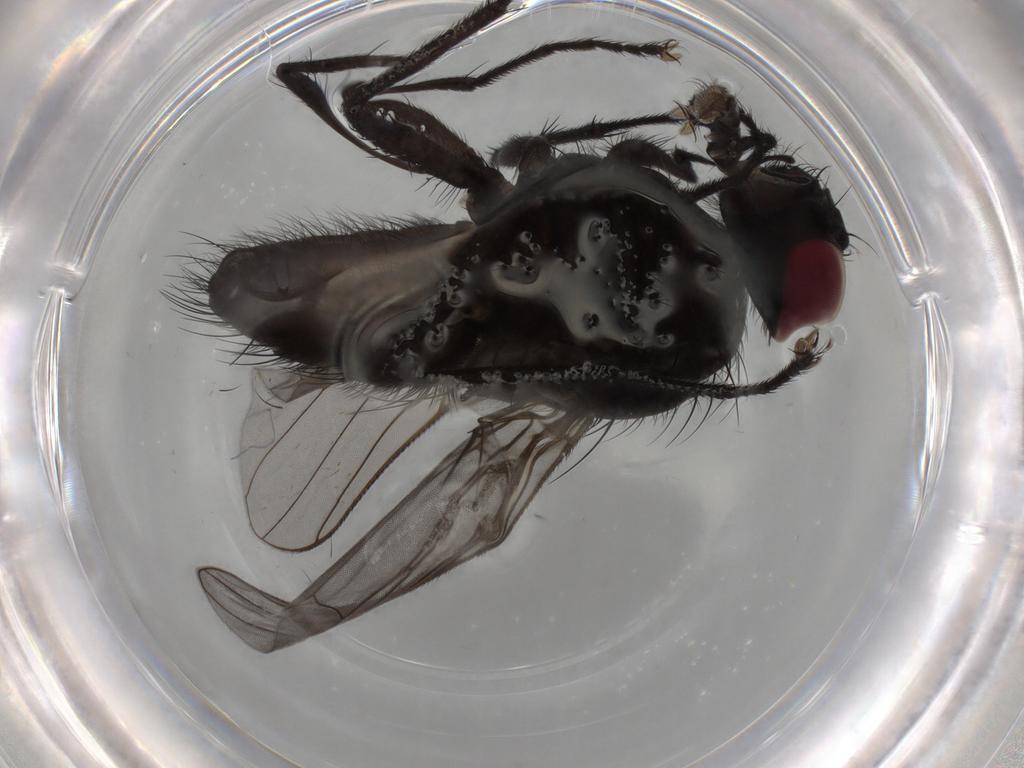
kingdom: Animalia
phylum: Arthropoda
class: Insecta
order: Diptera
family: Muscidae
